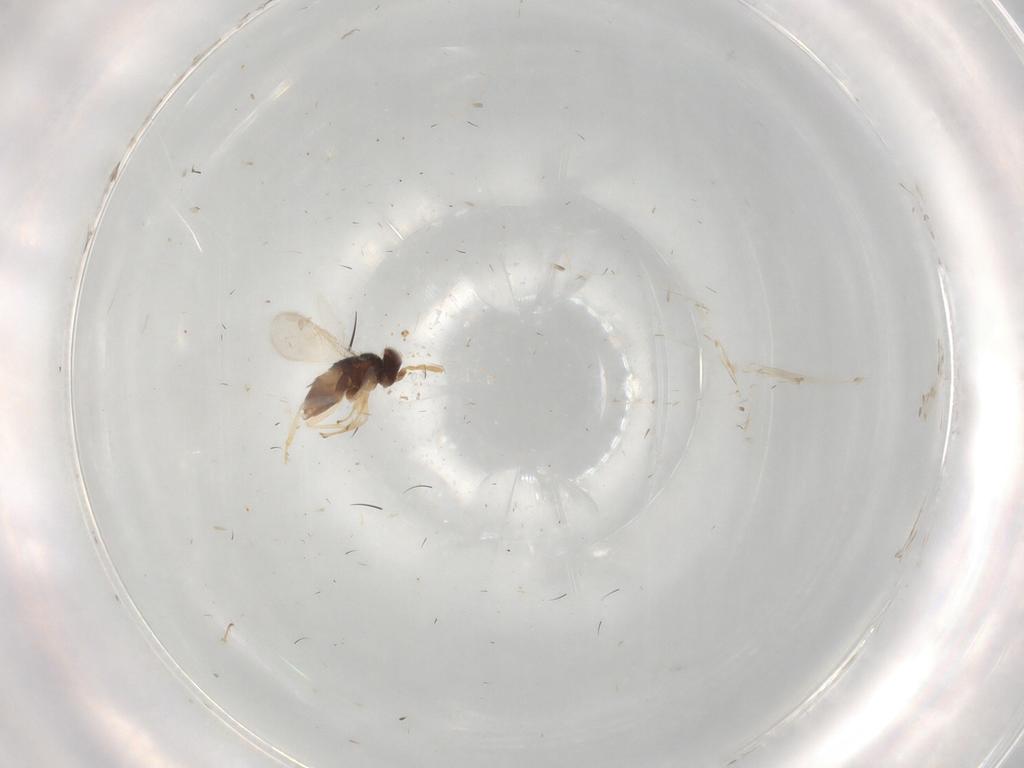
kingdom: Animalia
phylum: Arthropoda
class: Insecta
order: Hymenoptera
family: Aphelinidae
